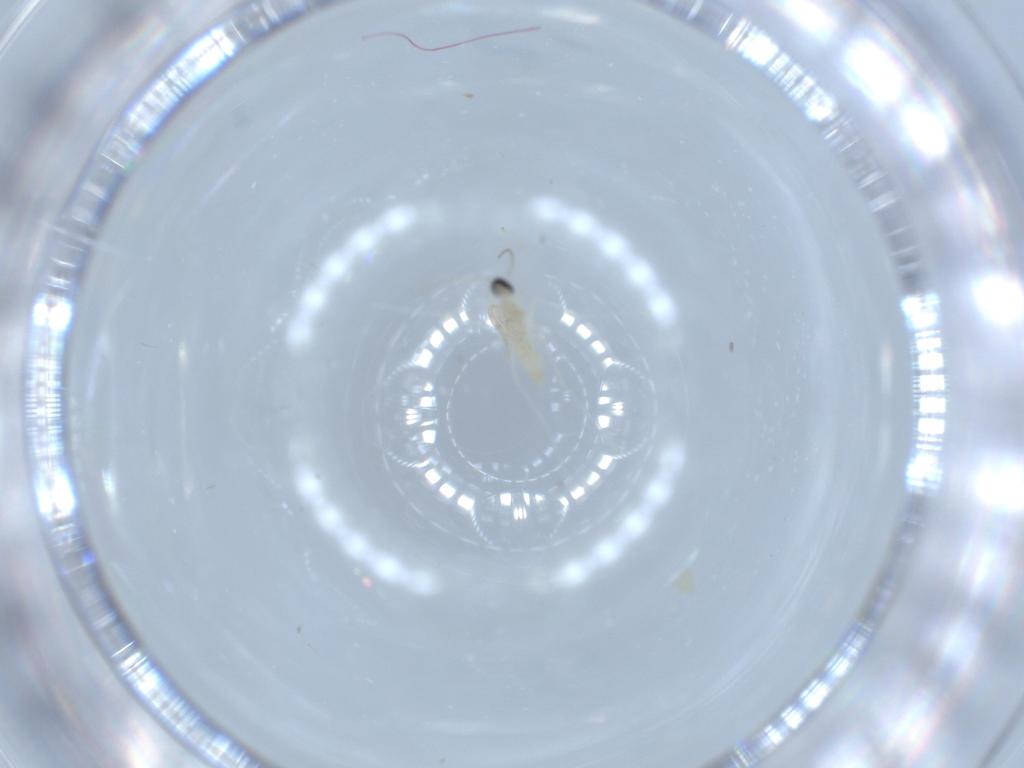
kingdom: Animalia
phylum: Arthropoda
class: Insecta
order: Diptera
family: Cecidomyiidae
